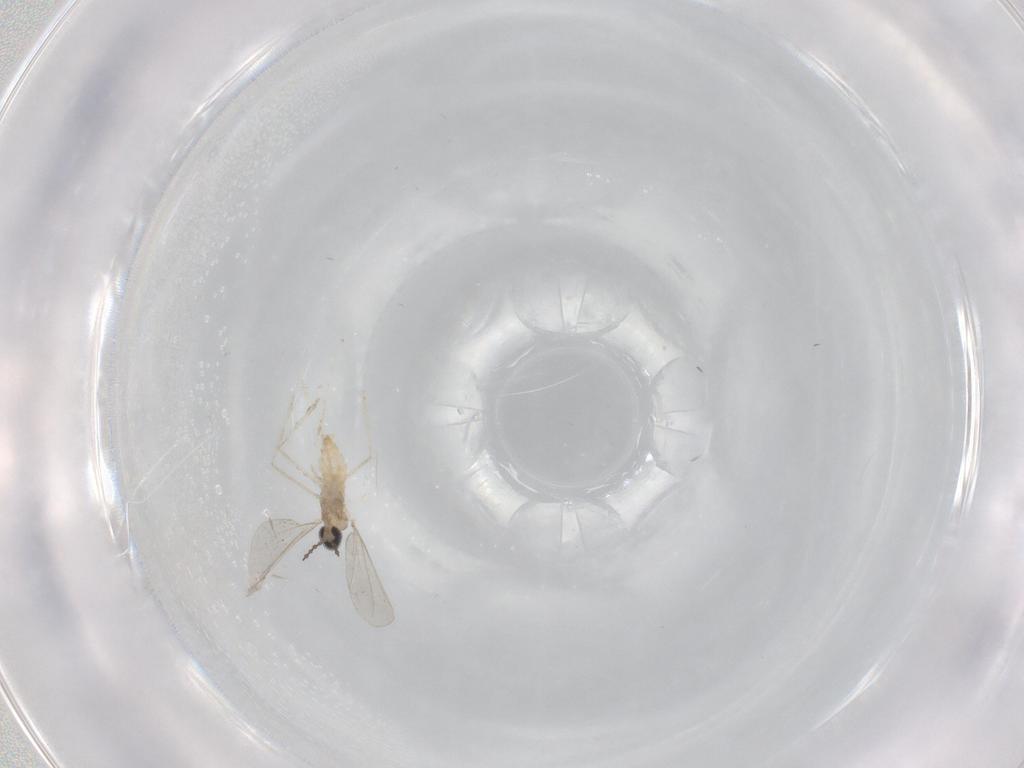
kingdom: Animalia
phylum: Arthropoda
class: Insecta
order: Diptera
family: Cecidomyiidae
